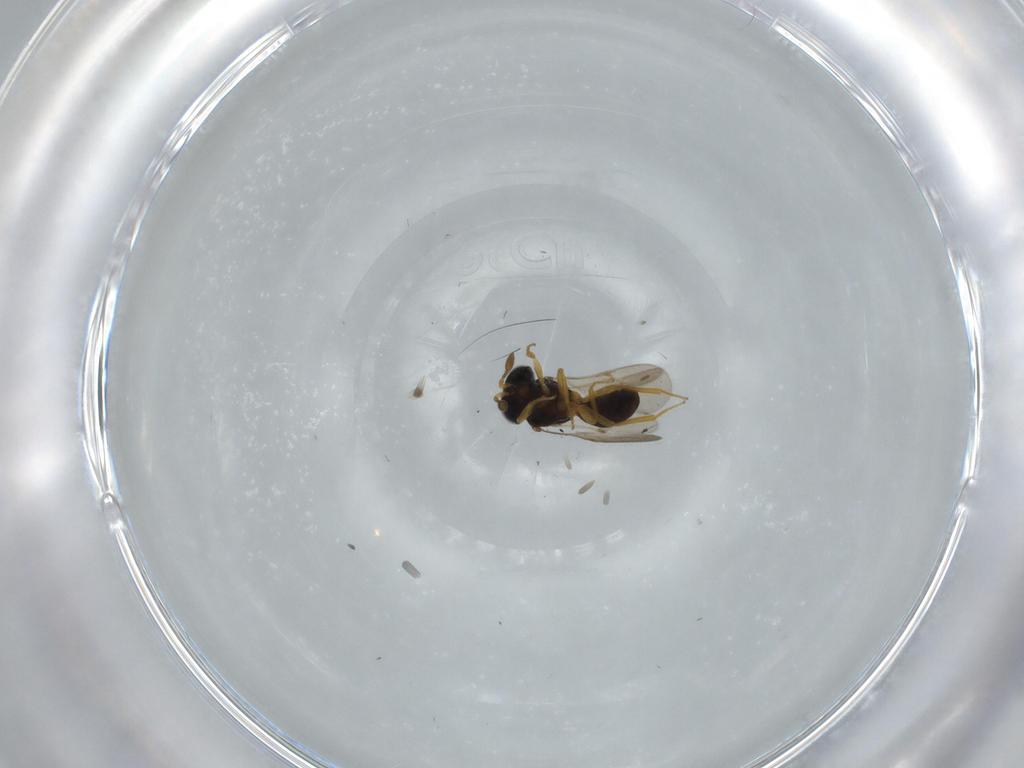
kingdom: Animalia
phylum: Arthropoda
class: Insecta
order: Hymenoptera
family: Scelionidae
